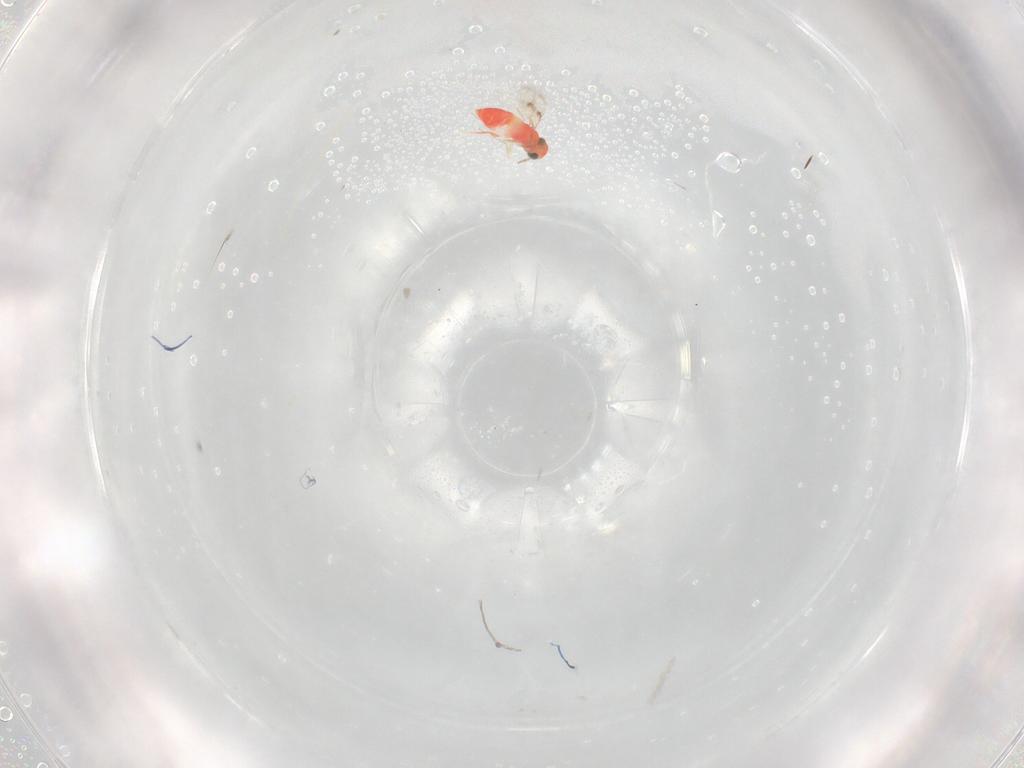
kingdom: Animalia
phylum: Arthropoda
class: Insecta
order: Hymenoptera
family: Trichogrammatidae
